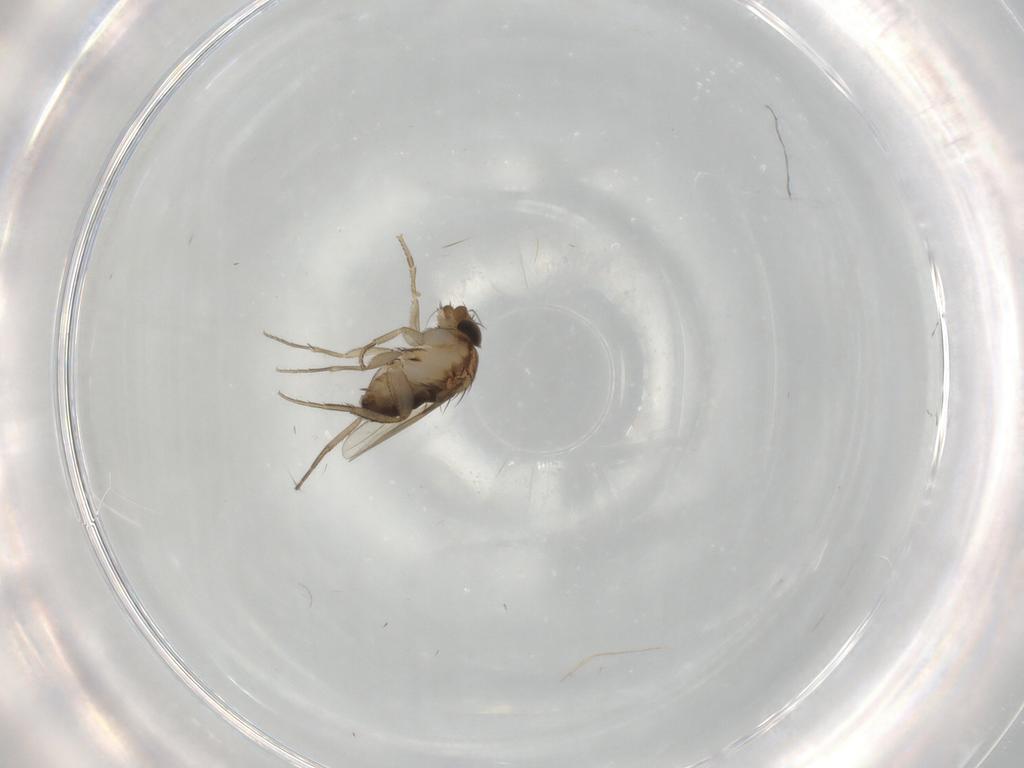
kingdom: Animalia
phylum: Arthropoda
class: Insecta
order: Diptera
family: Phoridae
